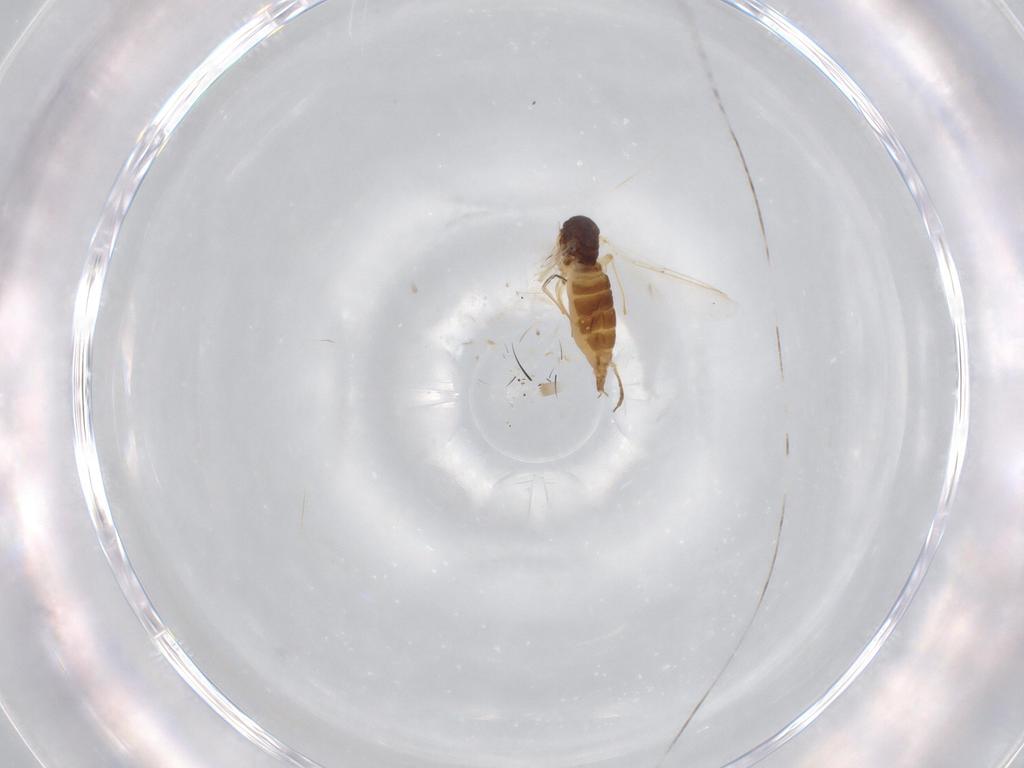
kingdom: Animalia
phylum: Arthropoda
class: Insecta
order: Diptera
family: Sciaridae
